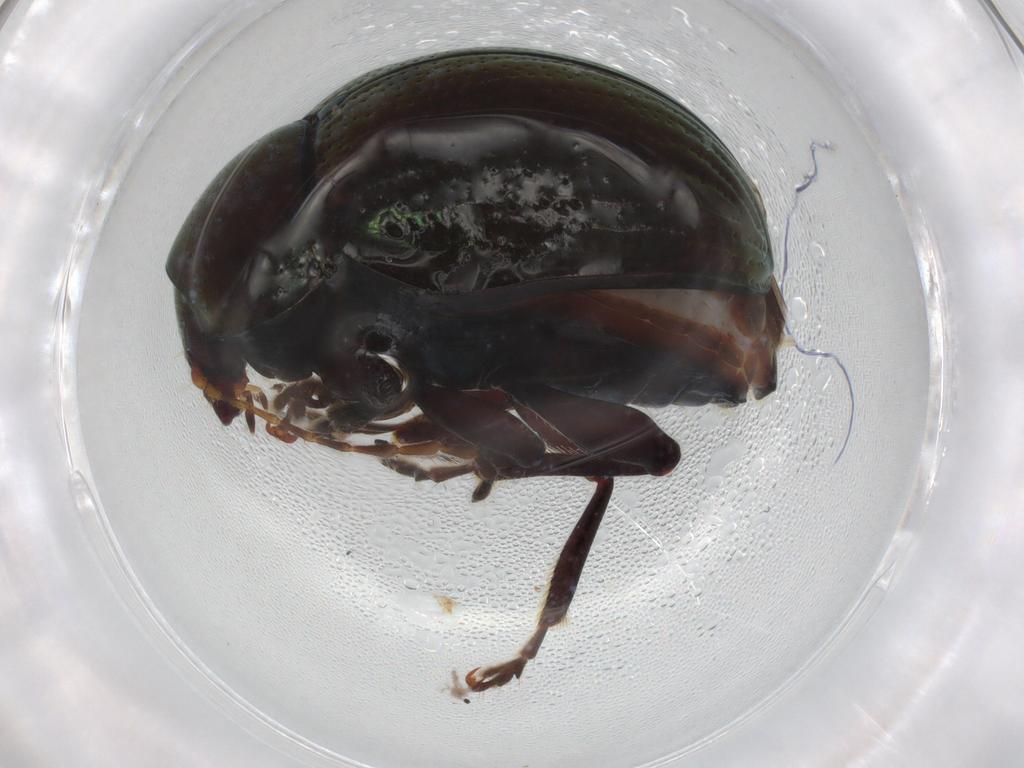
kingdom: Animalia
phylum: Arthropoda
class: Insecta
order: Coleoptera
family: Chrysomelidae
